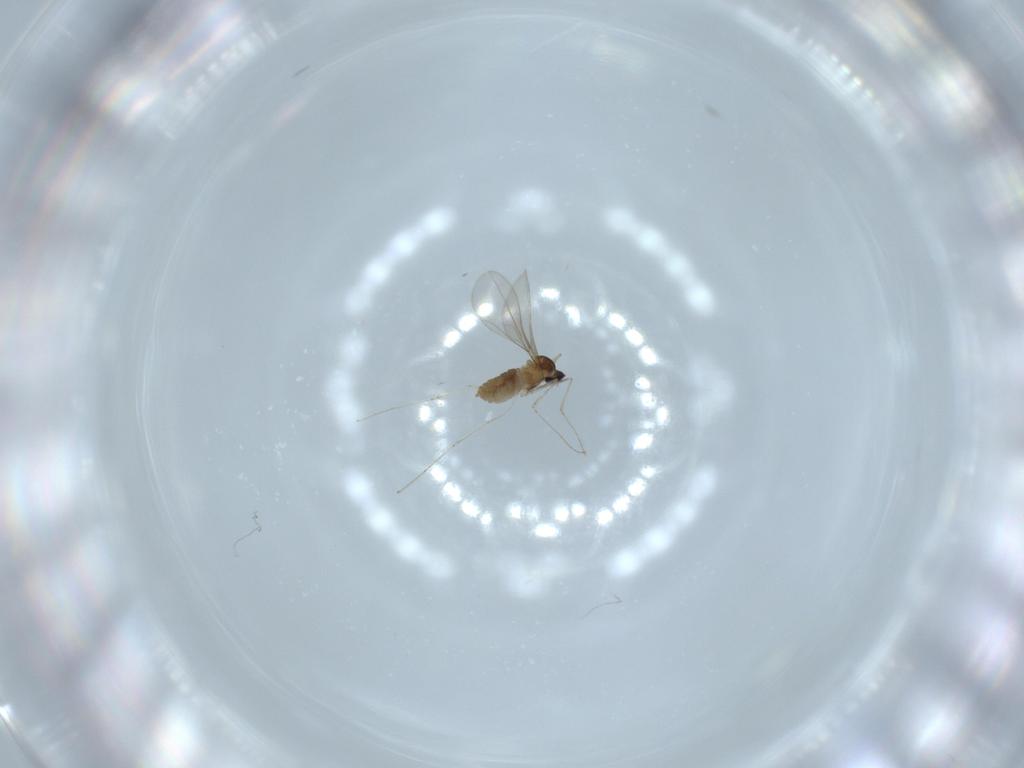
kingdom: Animalia
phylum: Arthropoda
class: Insecta
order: Diptera
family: Cecidomyiidae
